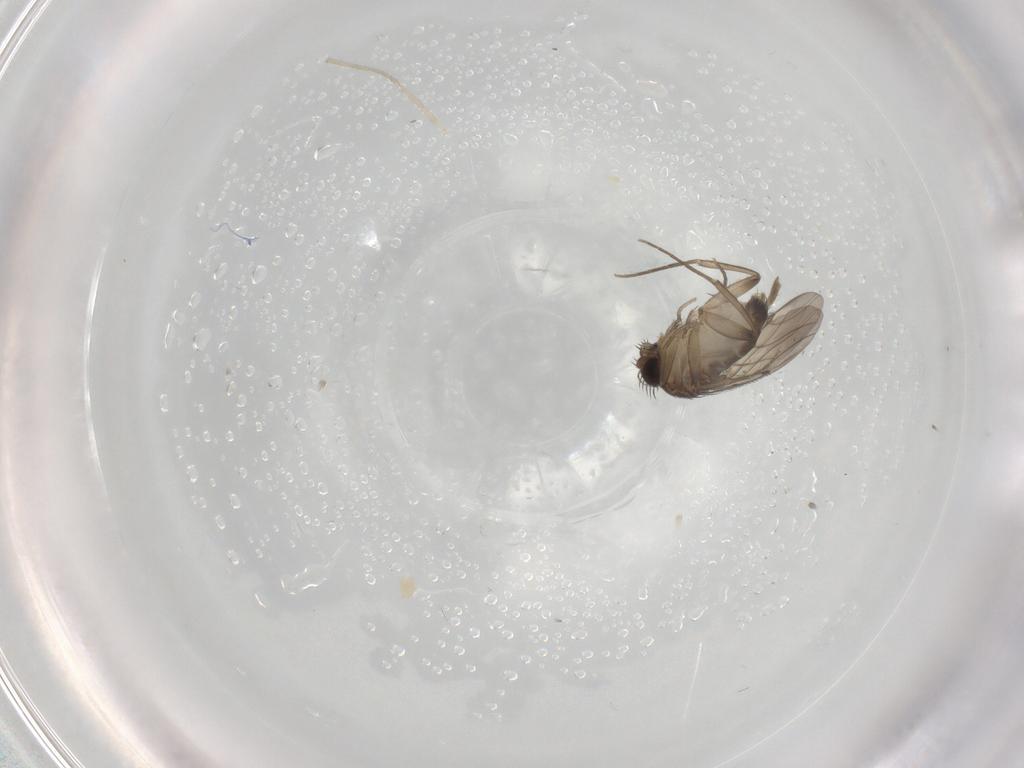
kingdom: Animalia
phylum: Arthropoda
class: Insecta
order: Diptera
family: Phoridae
